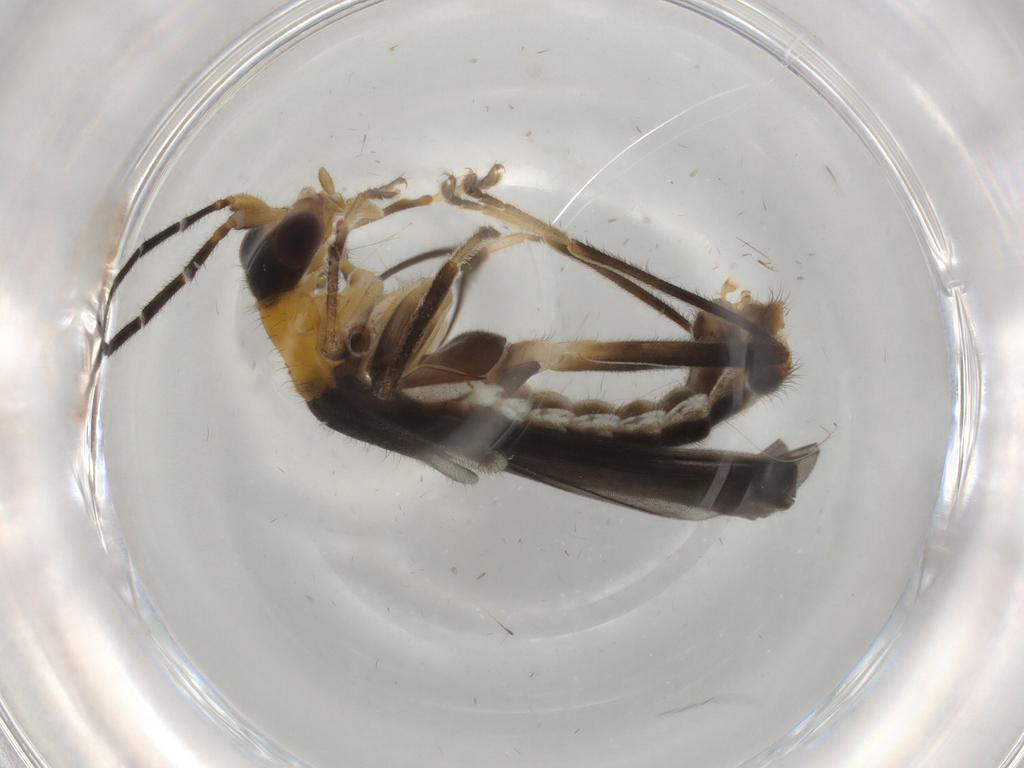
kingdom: Animalia
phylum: Arthropoda
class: Insecta
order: Coleoptera
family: Cantharidae
